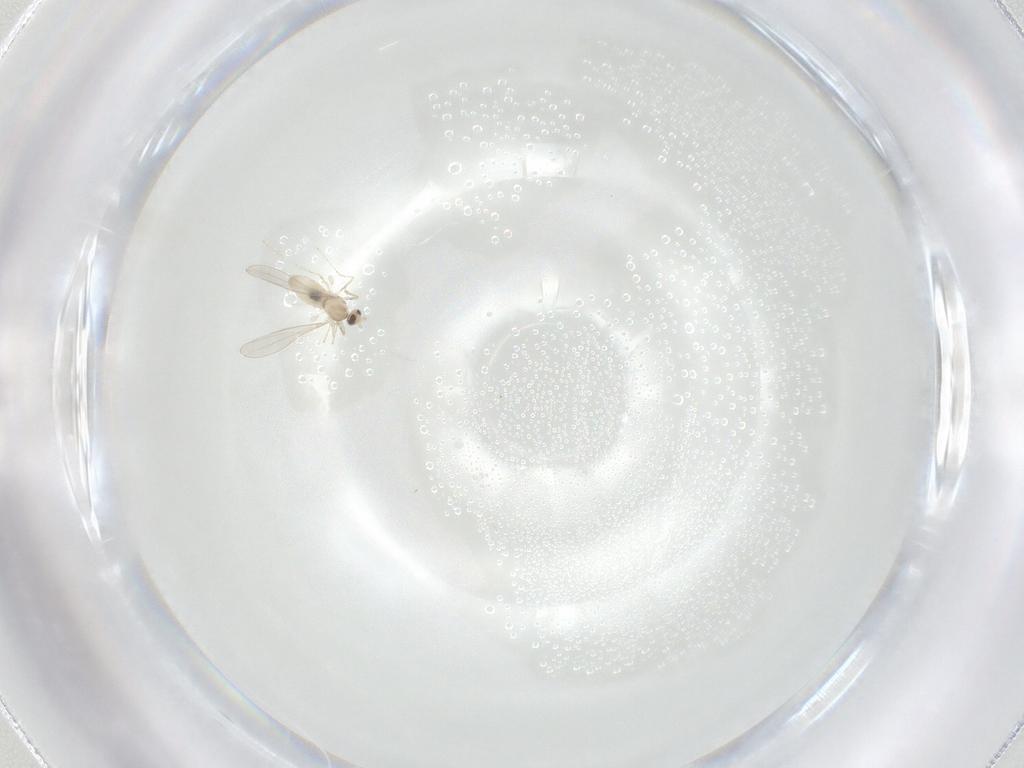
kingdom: Animalia
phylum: Arthropoda
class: Insecta
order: Diptera
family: Cecidomyiidae
